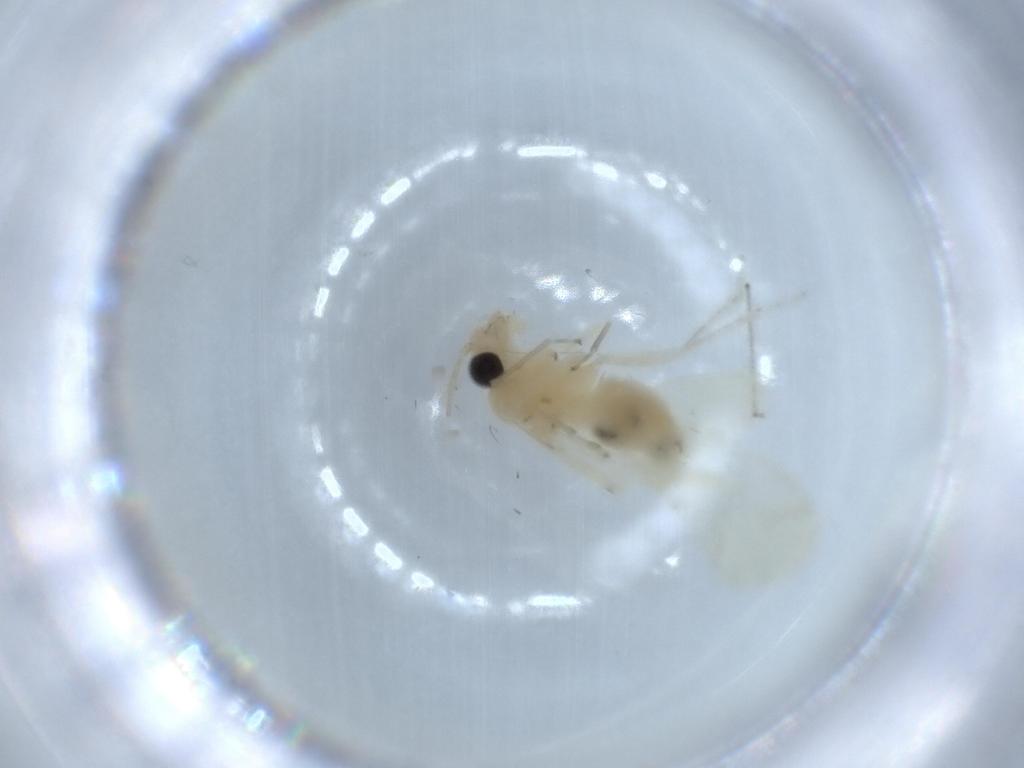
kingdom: Animalia
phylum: Arthropoda
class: Insecta
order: Psocodea
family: Caeciliusidae
